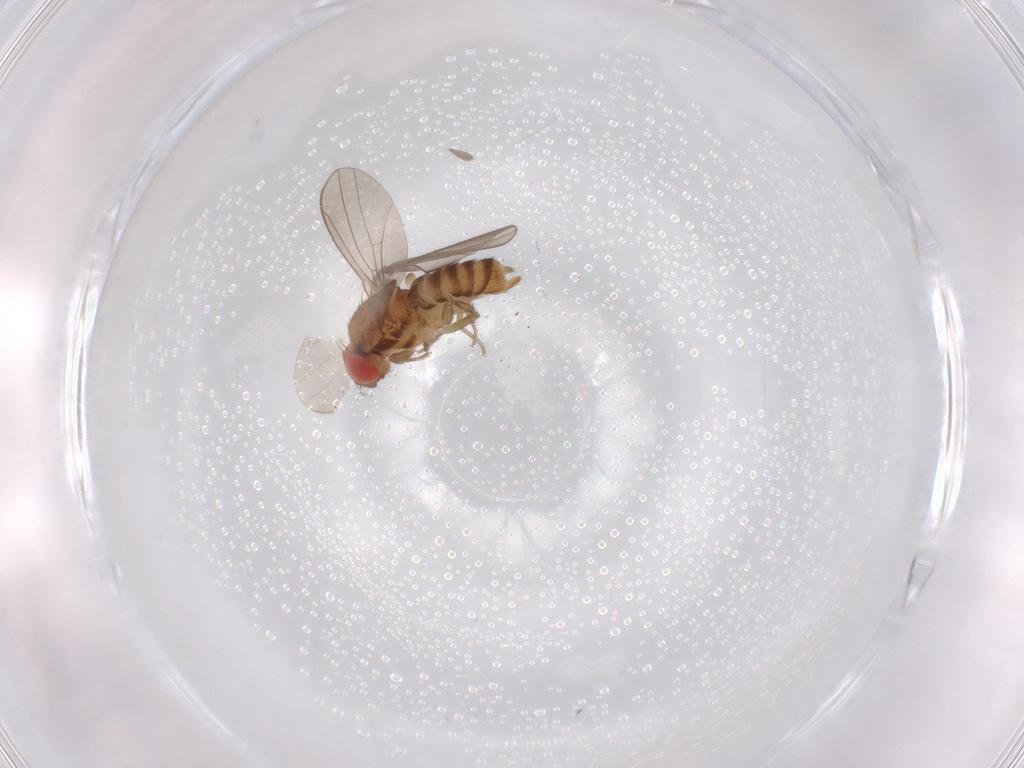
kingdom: Animalia
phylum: Arthropoda
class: Insecta
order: Diptera
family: Drosophilidae
